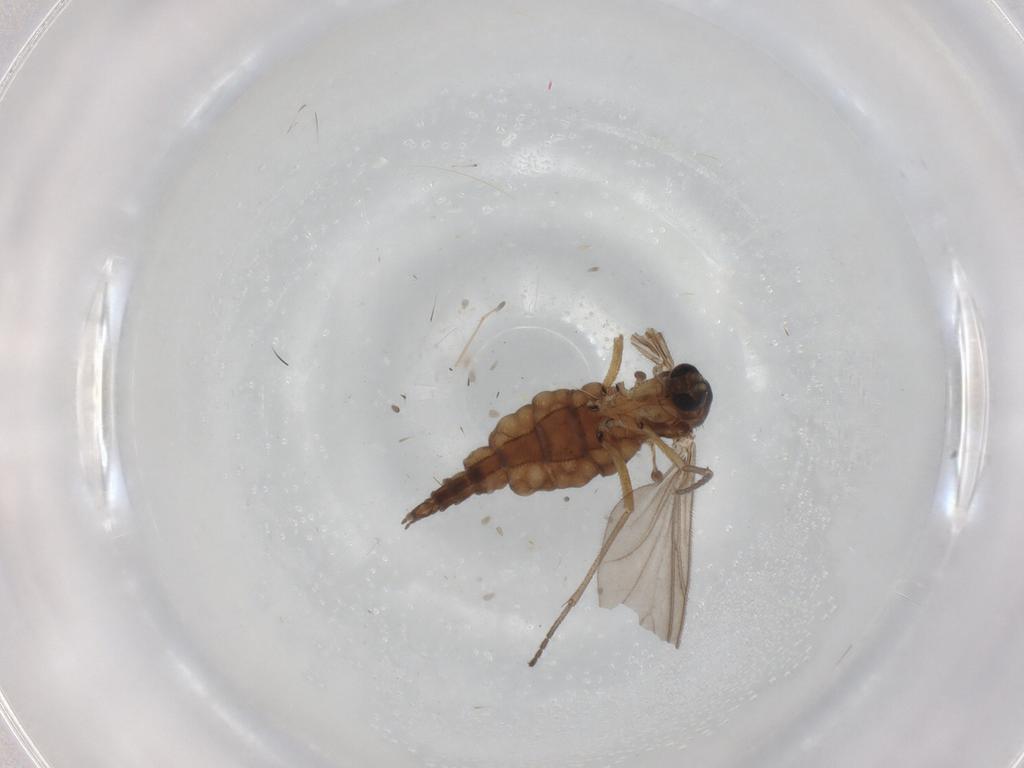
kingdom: Animalia
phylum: Arthropoda
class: Insecta
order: Diptera
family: Sciaridae
